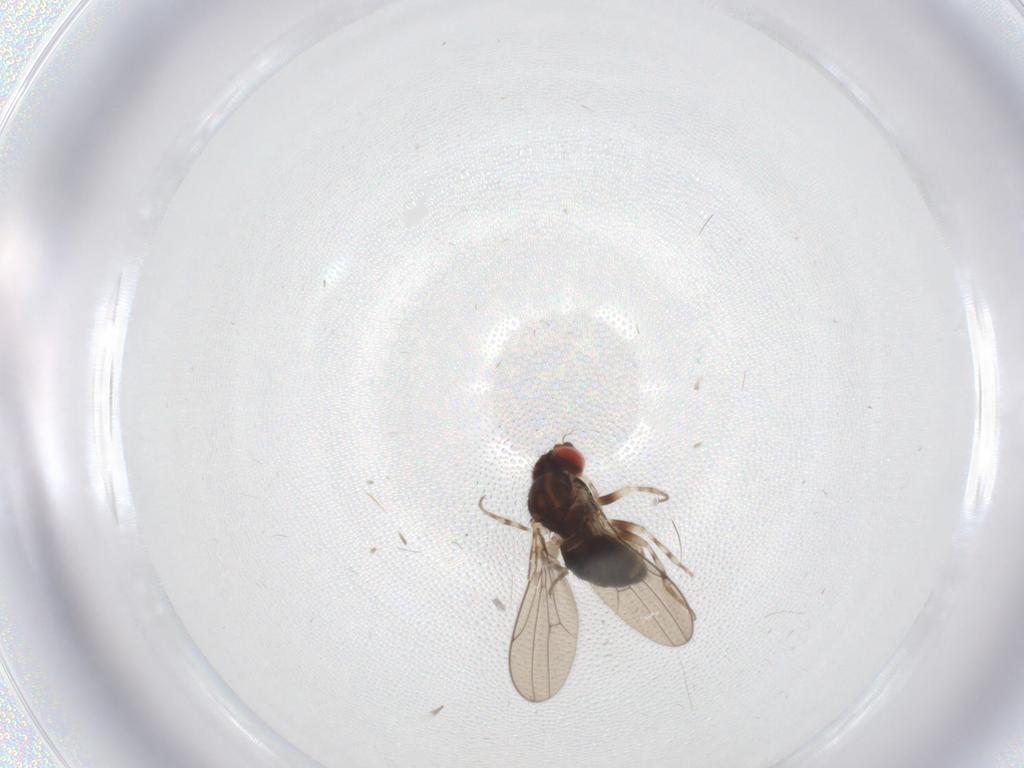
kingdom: Animalia
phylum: Arthropoda
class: Insecta
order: Diptera
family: Drosophilidae
